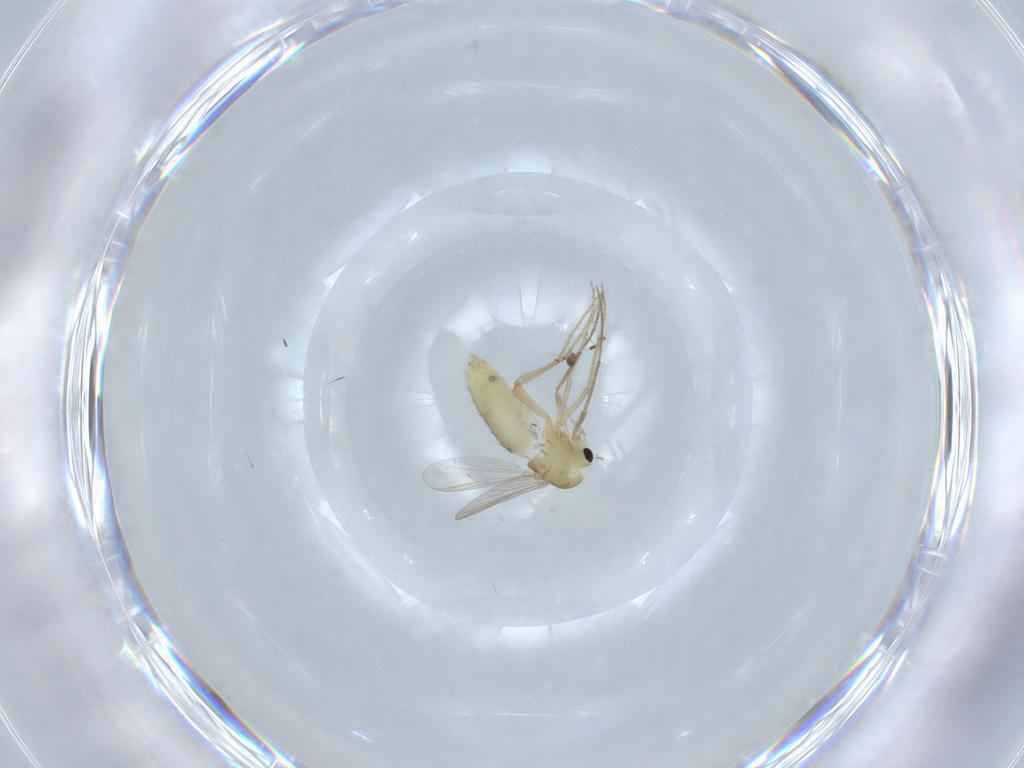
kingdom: Animalia
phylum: Arthropoda
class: Insecta
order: Diptera
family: Chironomidae
